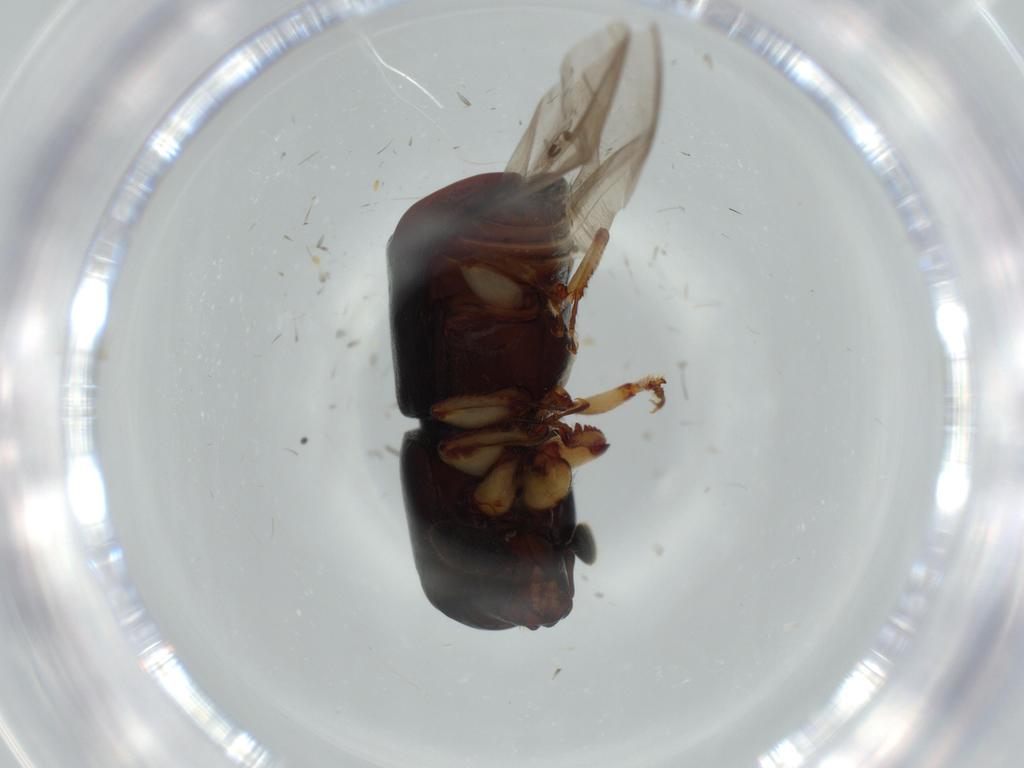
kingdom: Animalia
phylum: Arthropoda
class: Insecta
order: Coleoptera
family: Curculionidae
